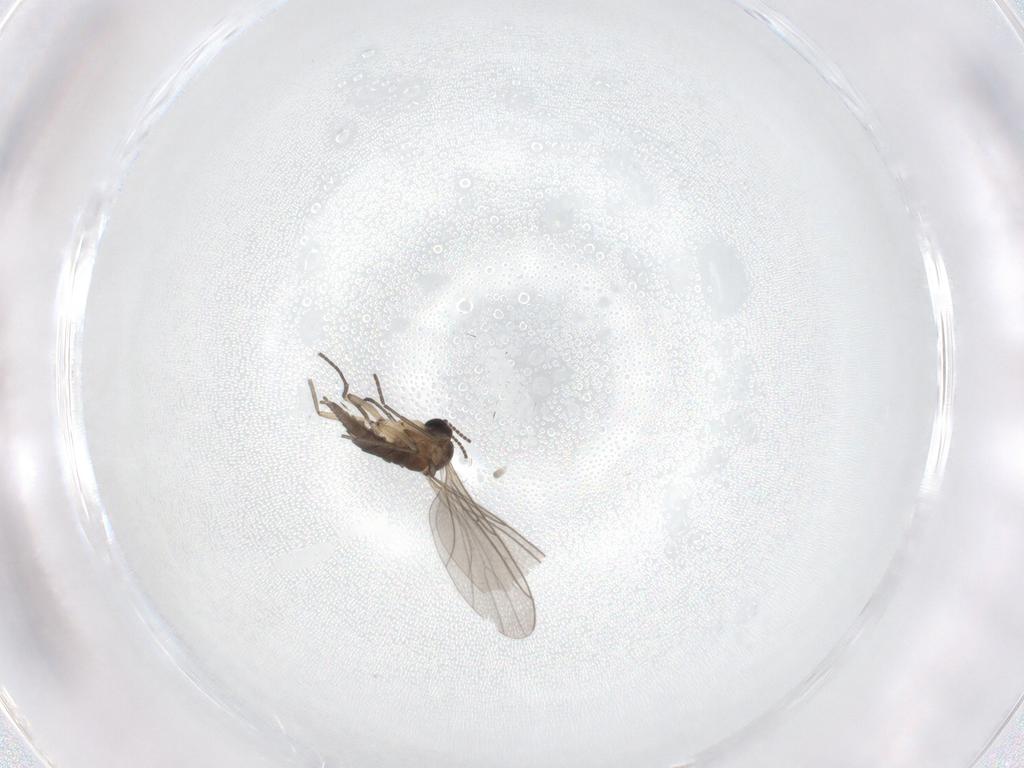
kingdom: Animalia
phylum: Arthropoda
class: Insecta
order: Diptera
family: Sciaridae
